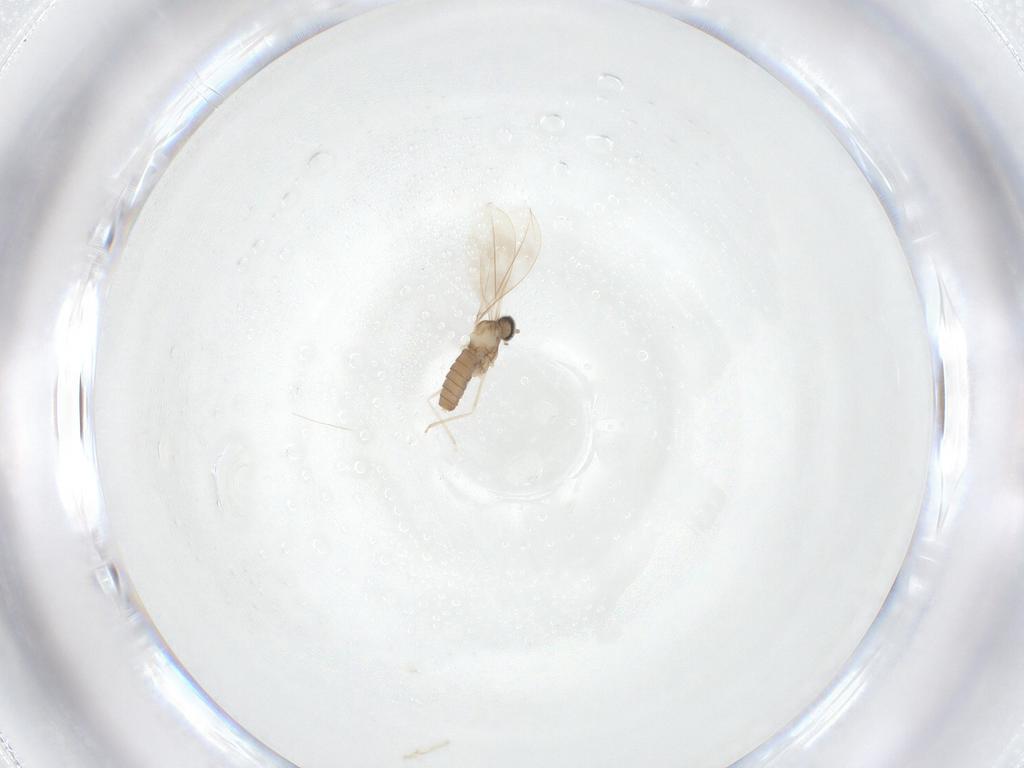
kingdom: Animalia
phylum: Arthropoda
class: Insecta
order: Diptera
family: Cecidomyiidae
